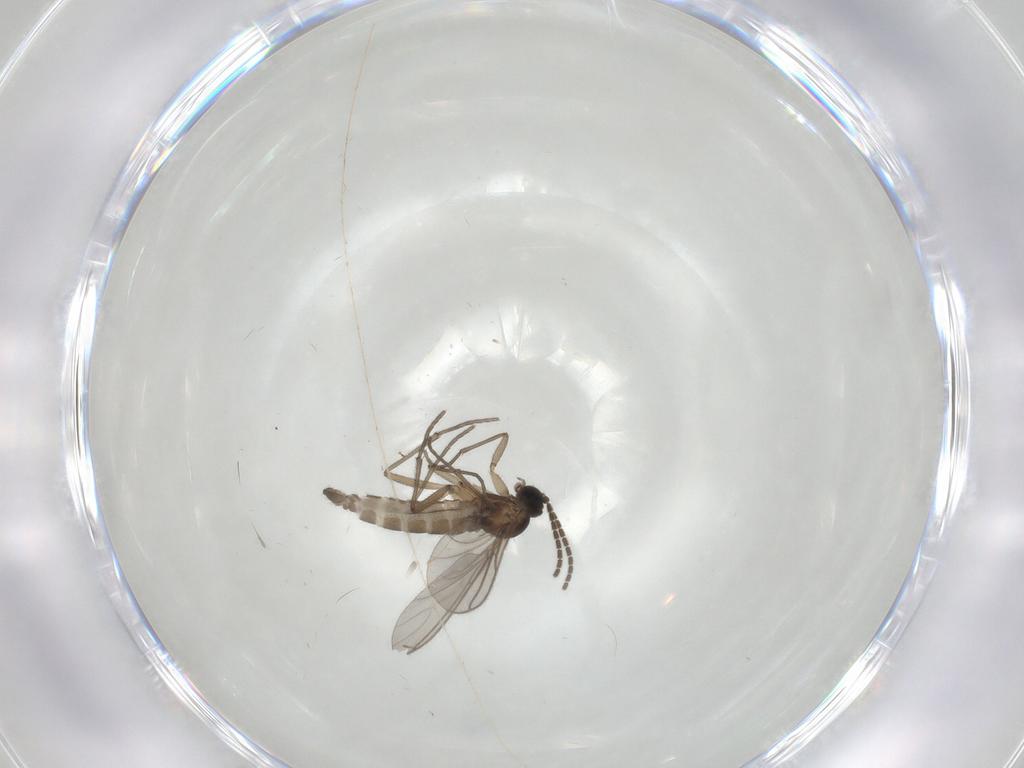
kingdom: Animalia
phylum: Arthropoda
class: Insecta
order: Diptera
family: Sciaridae
